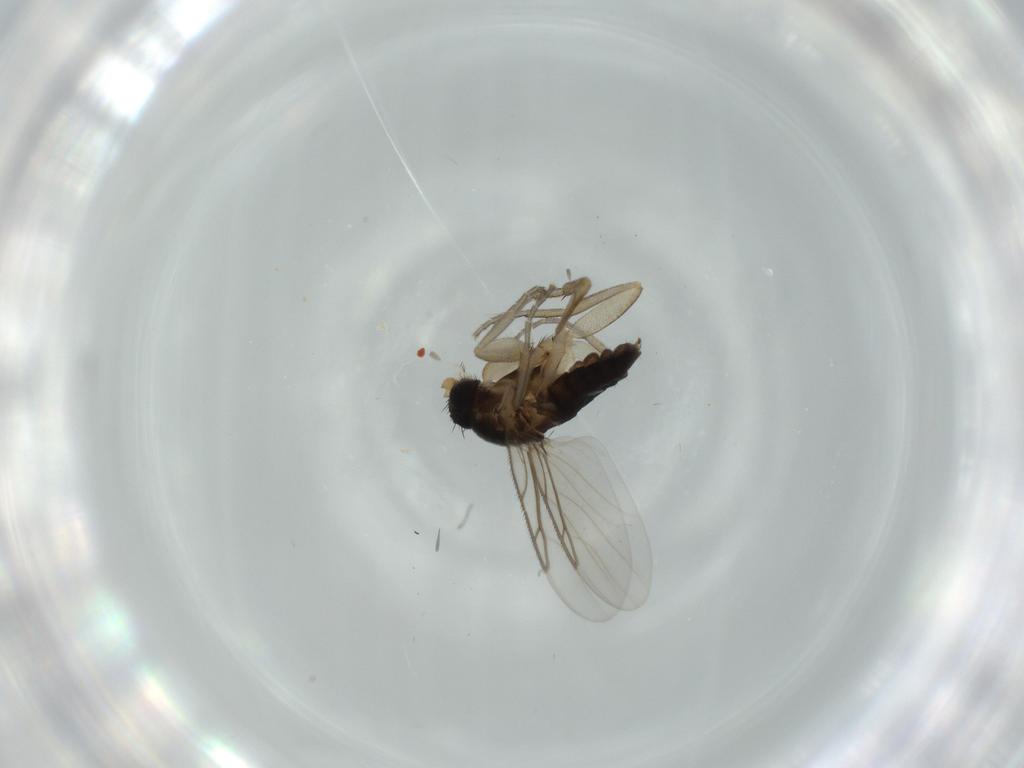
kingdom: Animalia
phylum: Arthropoda
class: Insecta
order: Diptera
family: Phoridae
